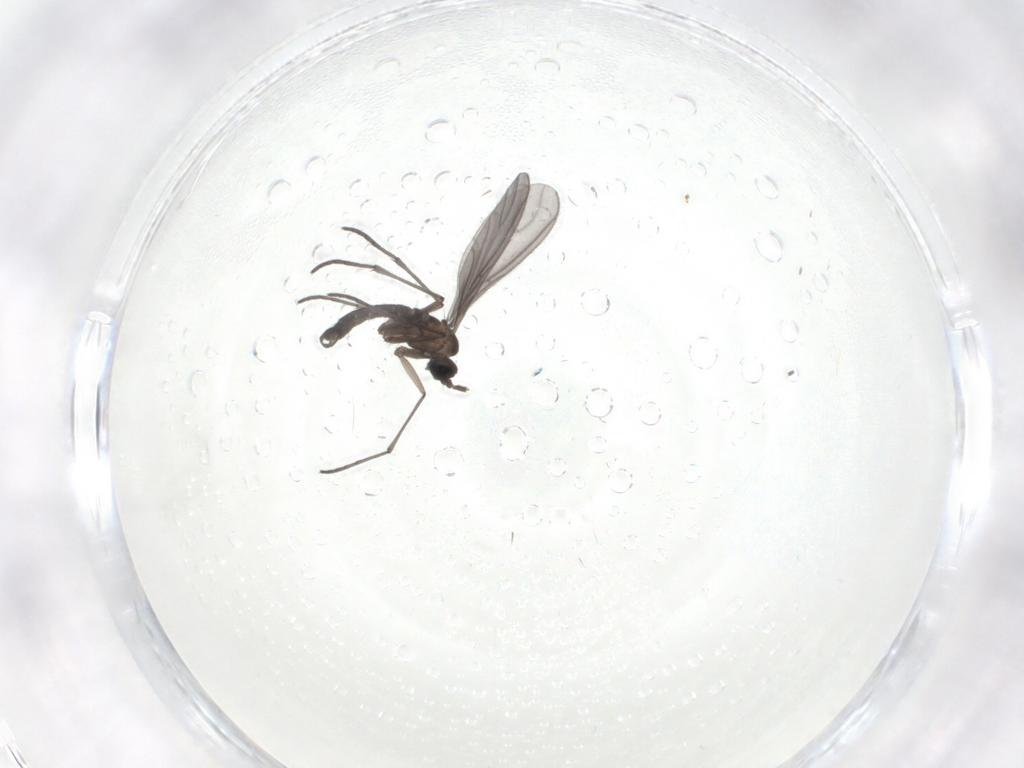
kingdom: Animalia
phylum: Arthropoda
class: Insecta
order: Diptera
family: Sciaridae
